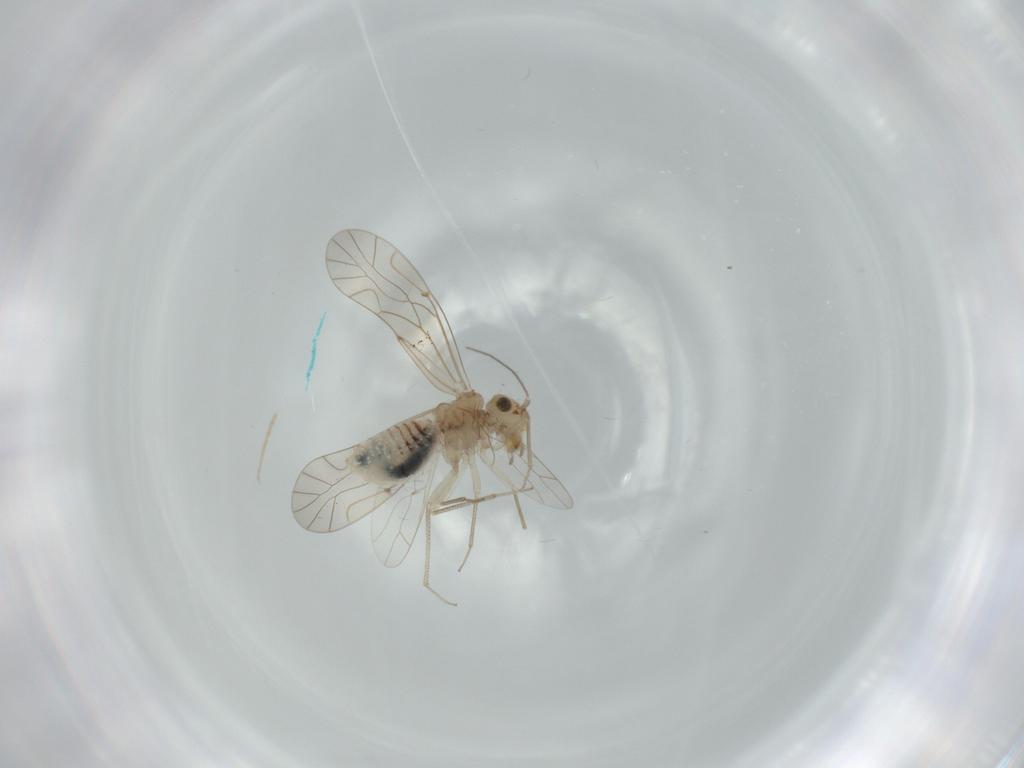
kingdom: Animalia
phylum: Arthropoda
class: Insecta
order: Psocodea
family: Lachesillidae
